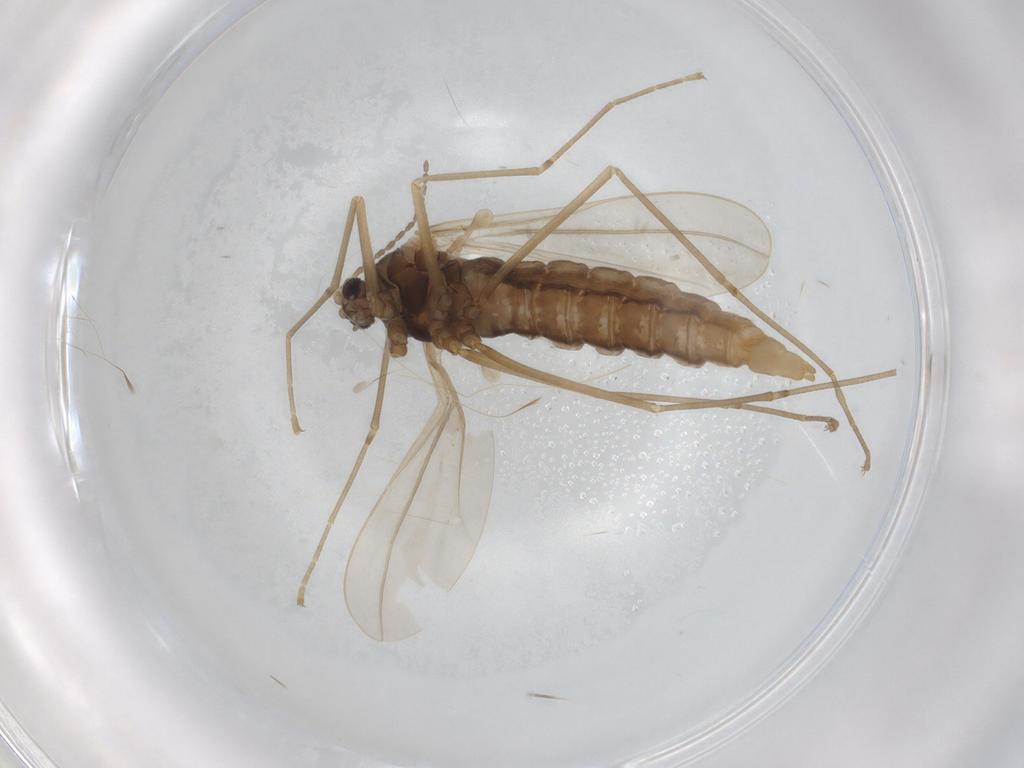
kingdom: Animalia
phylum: Arthropoda
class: Insecta
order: Diptera
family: Cecidomyiidae
